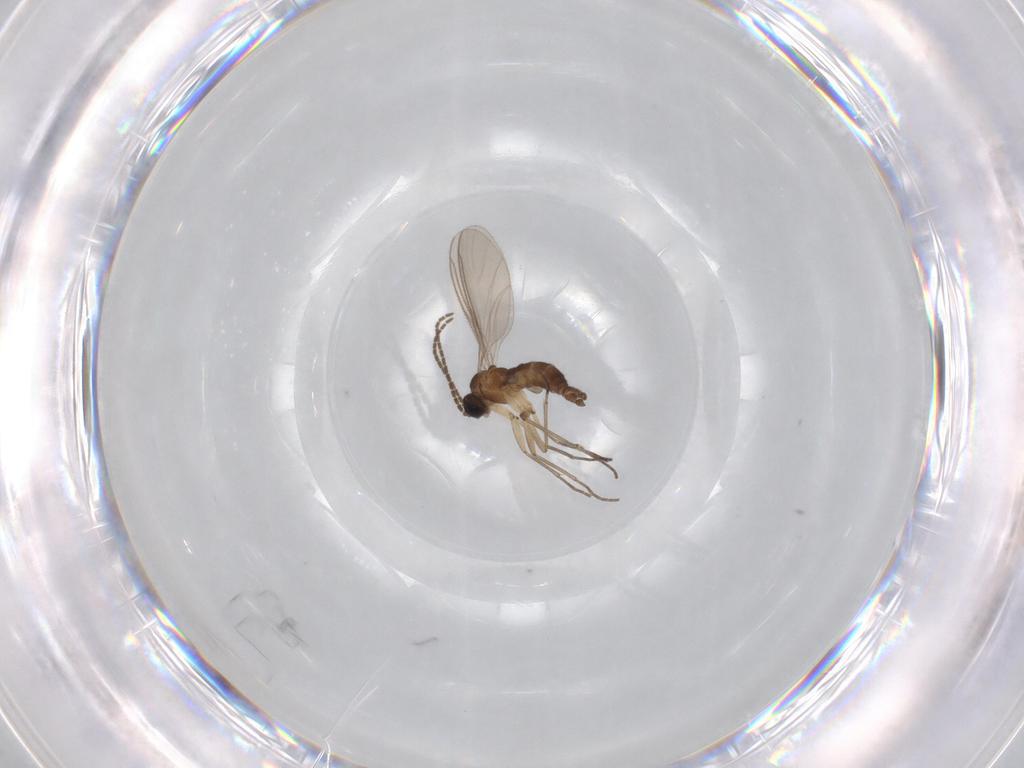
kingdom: Animalia
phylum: Arthropoda
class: Insecta
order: Diptera
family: Sciaridae
